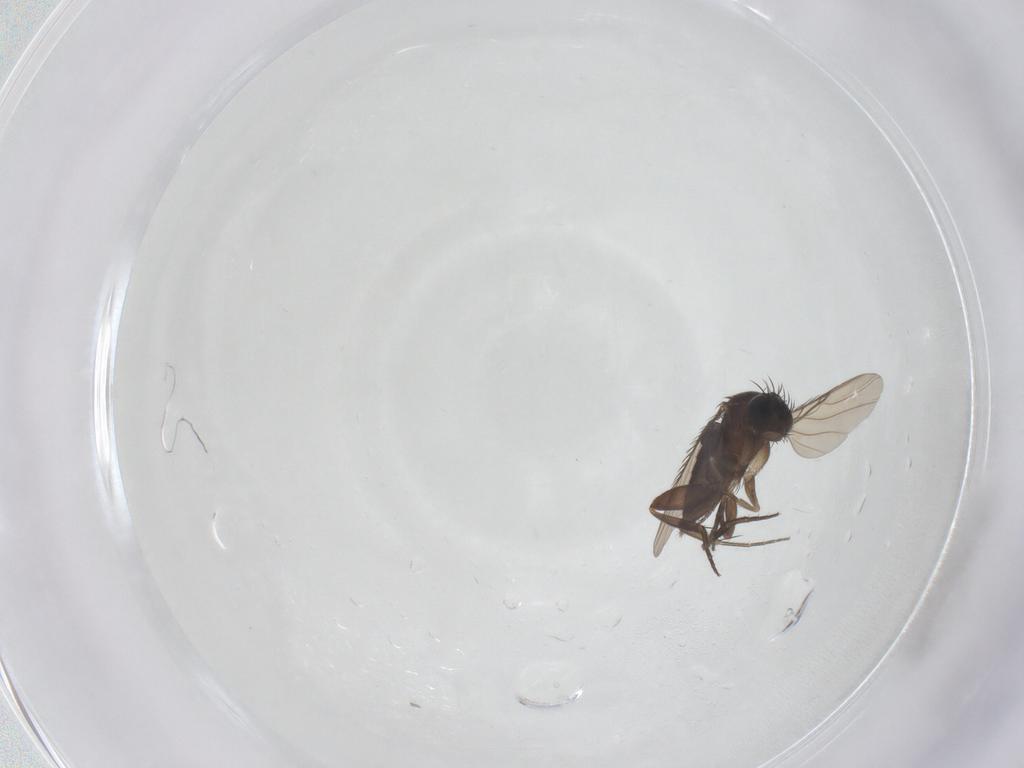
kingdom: Animalia
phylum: Arthropoda
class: Insecta
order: Diptera
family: Phoridae
